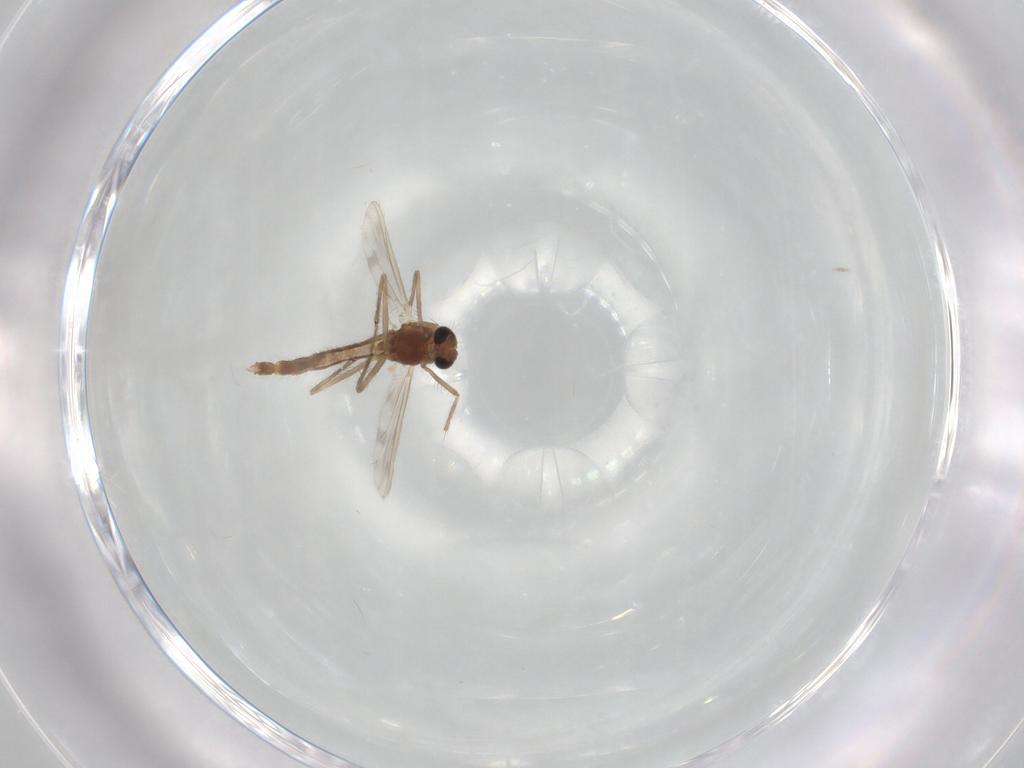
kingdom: Animalia
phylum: Arthropoda
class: Insecta
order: Diptera
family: Chironomidae
